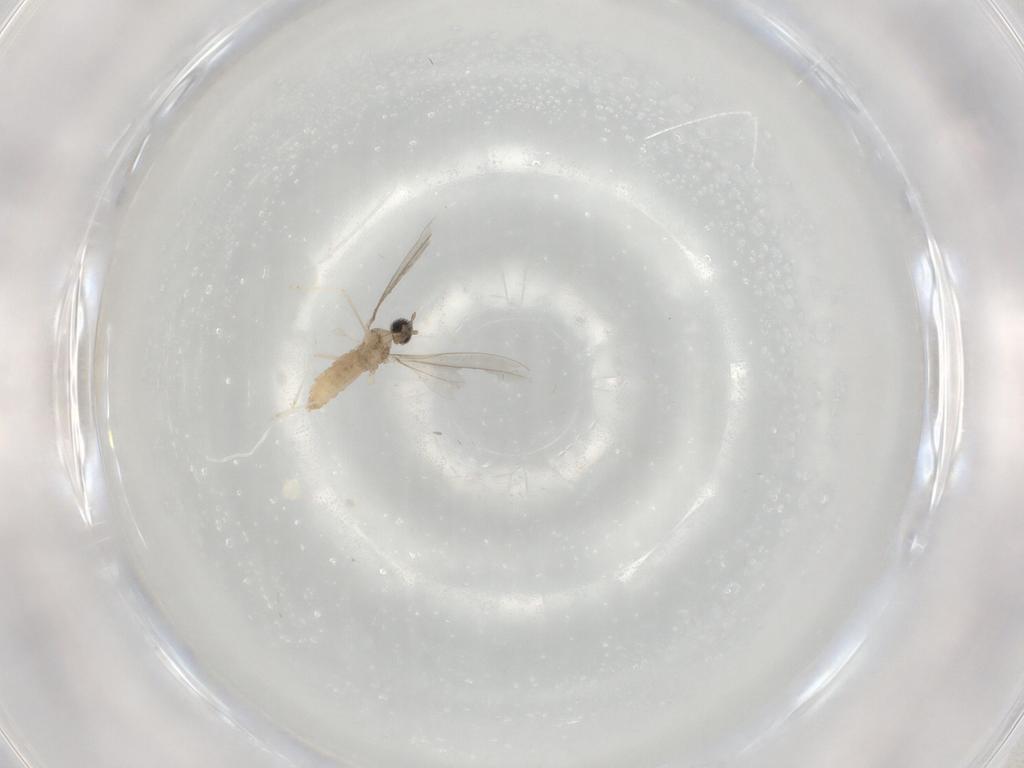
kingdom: Animalia
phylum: Arthropoda
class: Insecta
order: Diptera
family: Cecidomyiidae
